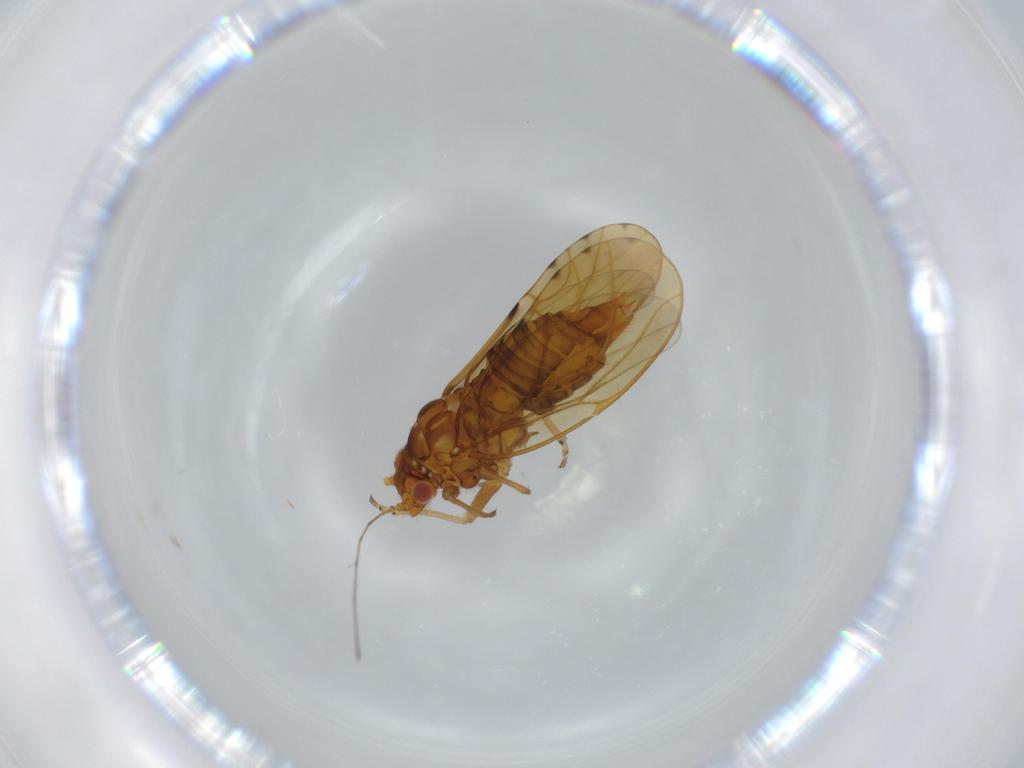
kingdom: Animalia
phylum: Arthropoda
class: Insecta
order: Hemiptera
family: Psylloidea_incertae_sedis
